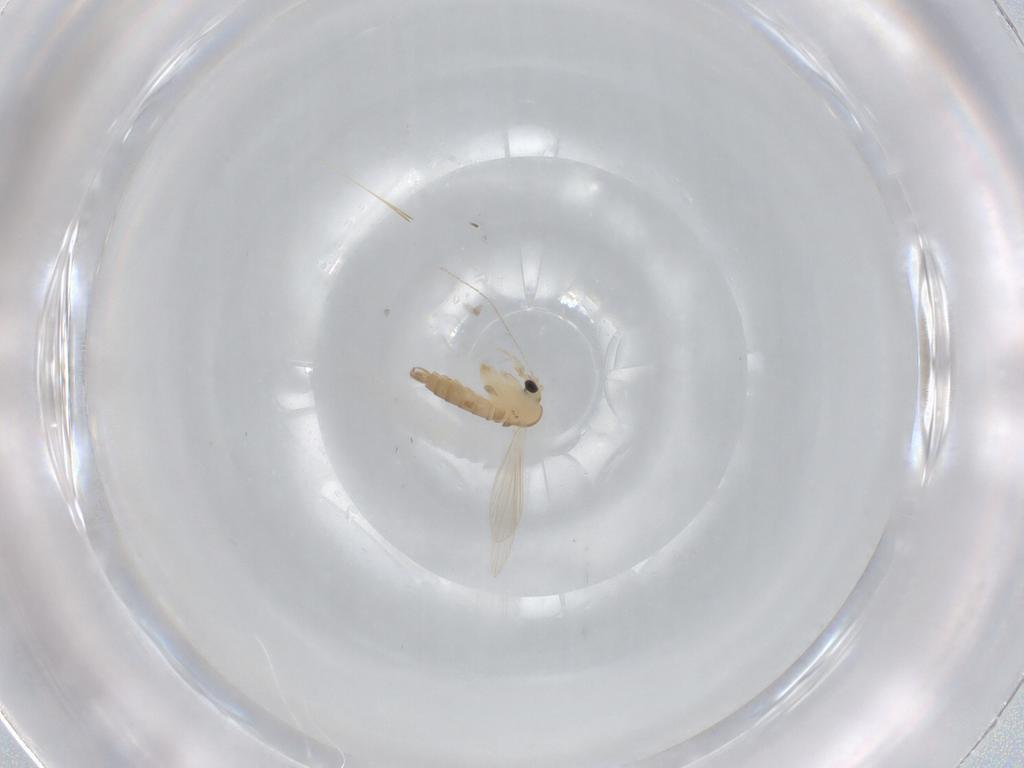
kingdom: Animalia
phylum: Arthropoda
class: Insecta
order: Diptera
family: Psychodidae
